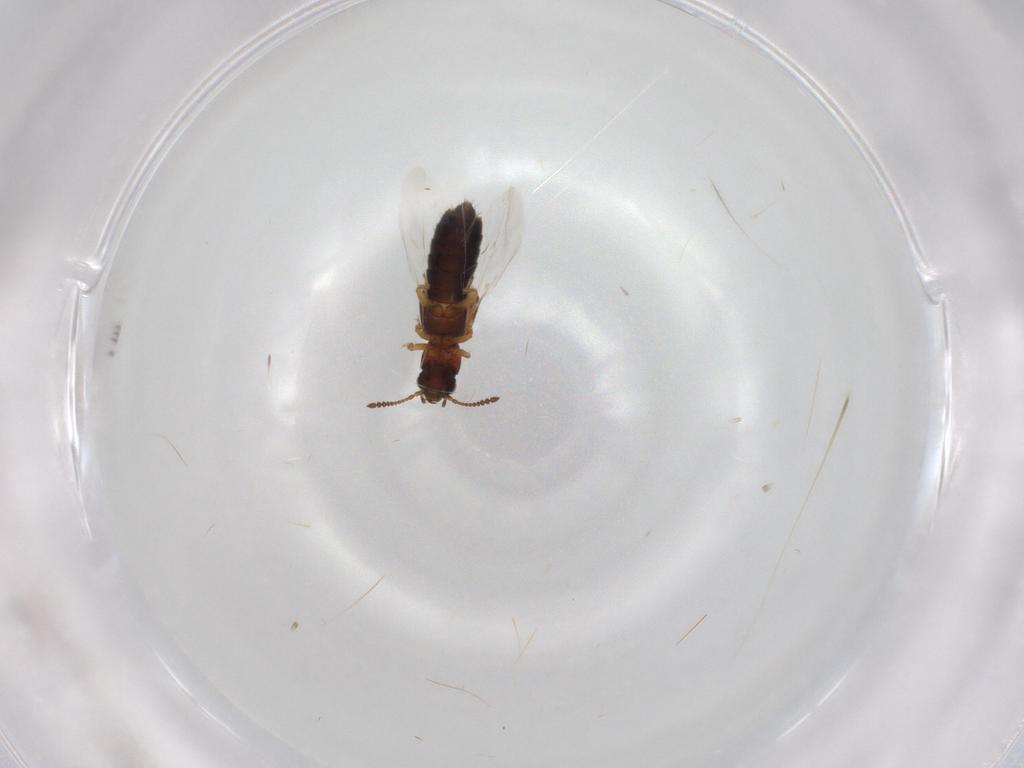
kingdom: Animalia
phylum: Arthropoda
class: Insecta
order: Coleoptera
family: Staphylinidae
